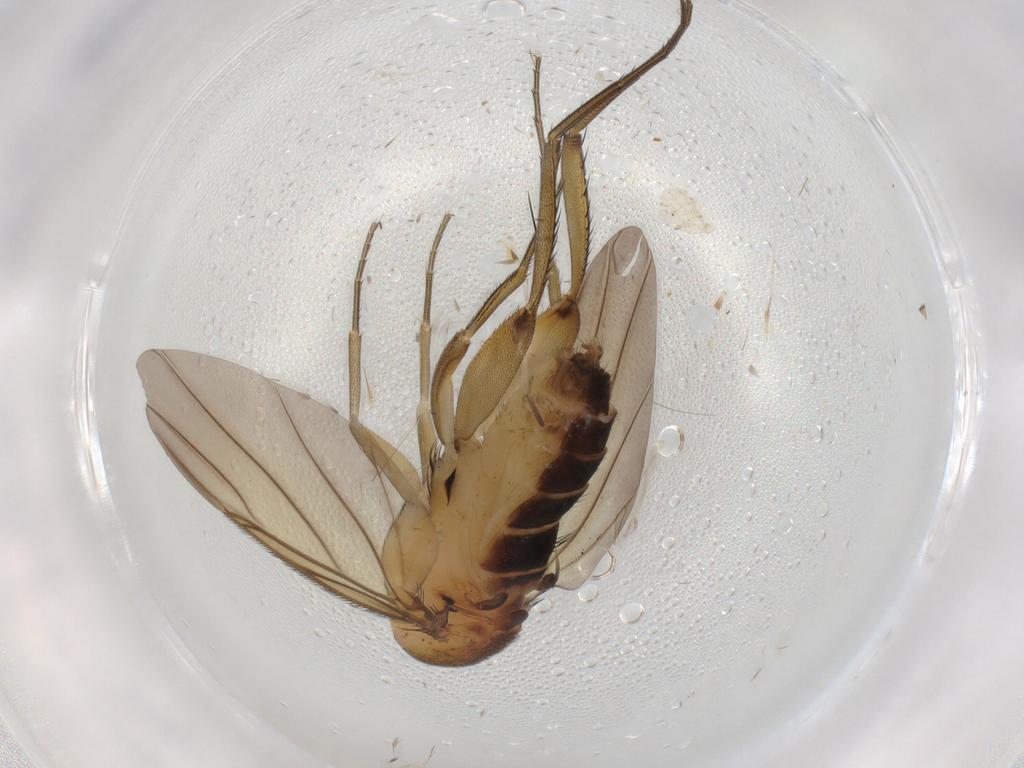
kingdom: Animalia
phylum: Arthropoda
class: Insecta
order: Diptera
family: Phoridae
